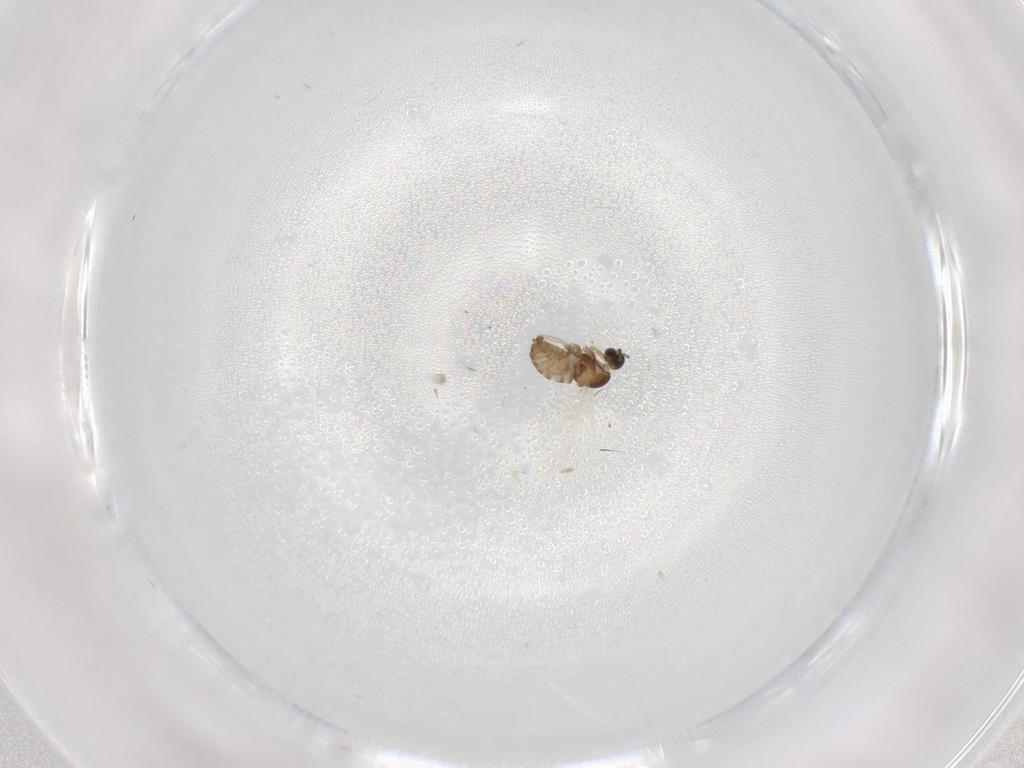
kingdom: Animalia
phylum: Arthropoda
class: Insecta
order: Diptera
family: Cecidomyiidae
